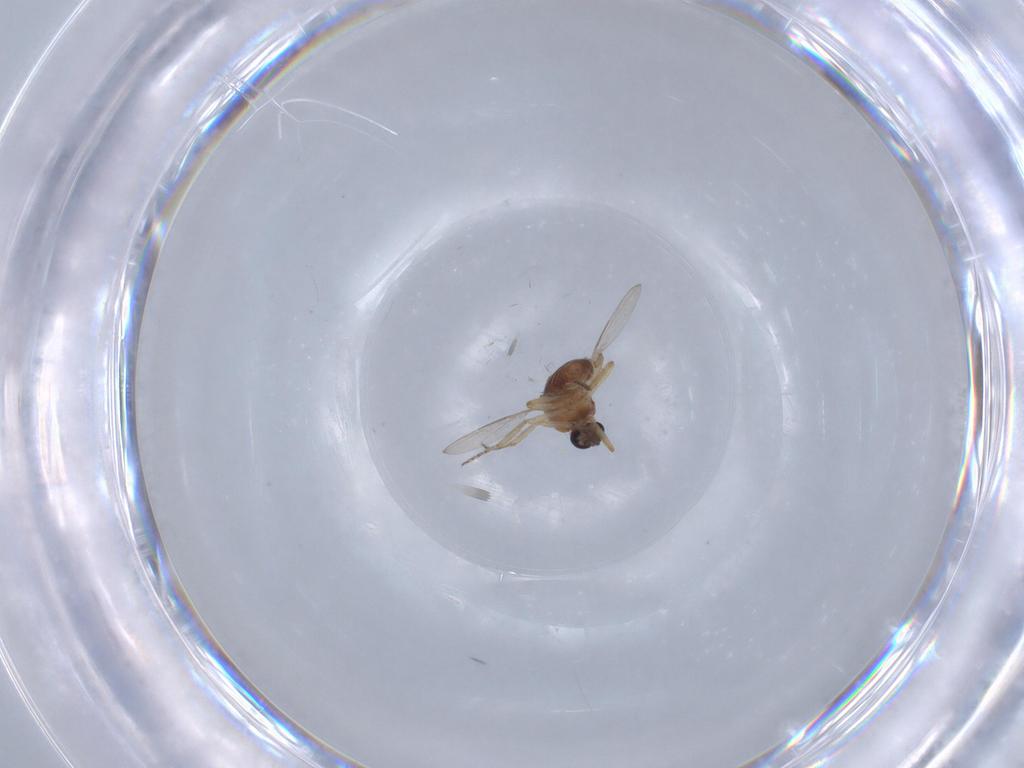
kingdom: Animalia
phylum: Arthropoda
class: Insecta
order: Diptera
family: Ceratopogonidae
